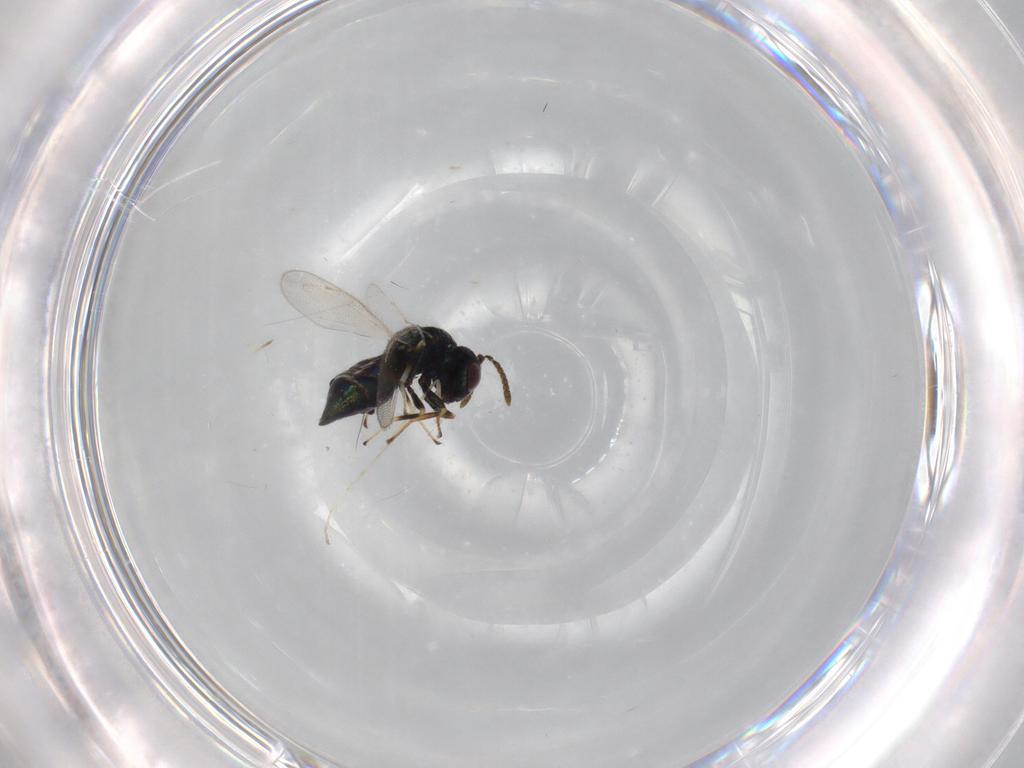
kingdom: Animalia
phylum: Arthropoda
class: Insecta
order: Hymenoptera
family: Pteromalidae
